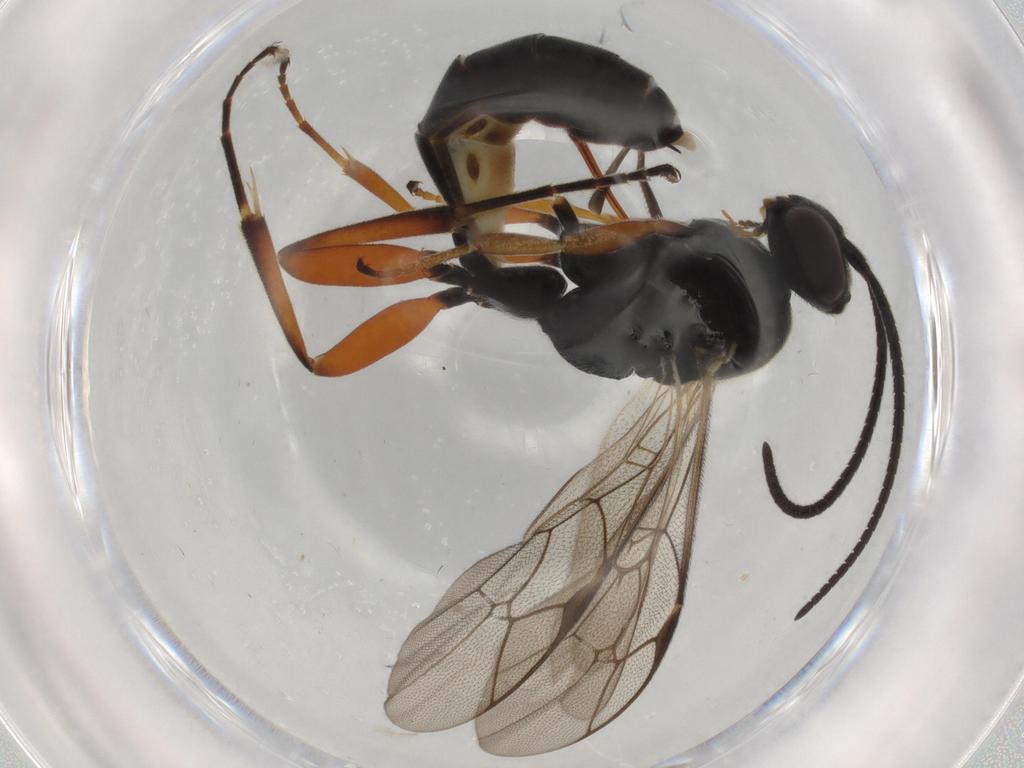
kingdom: Animalia
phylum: Arthropoda
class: Insecta
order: Hymenoptera
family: Ichneumonidae
